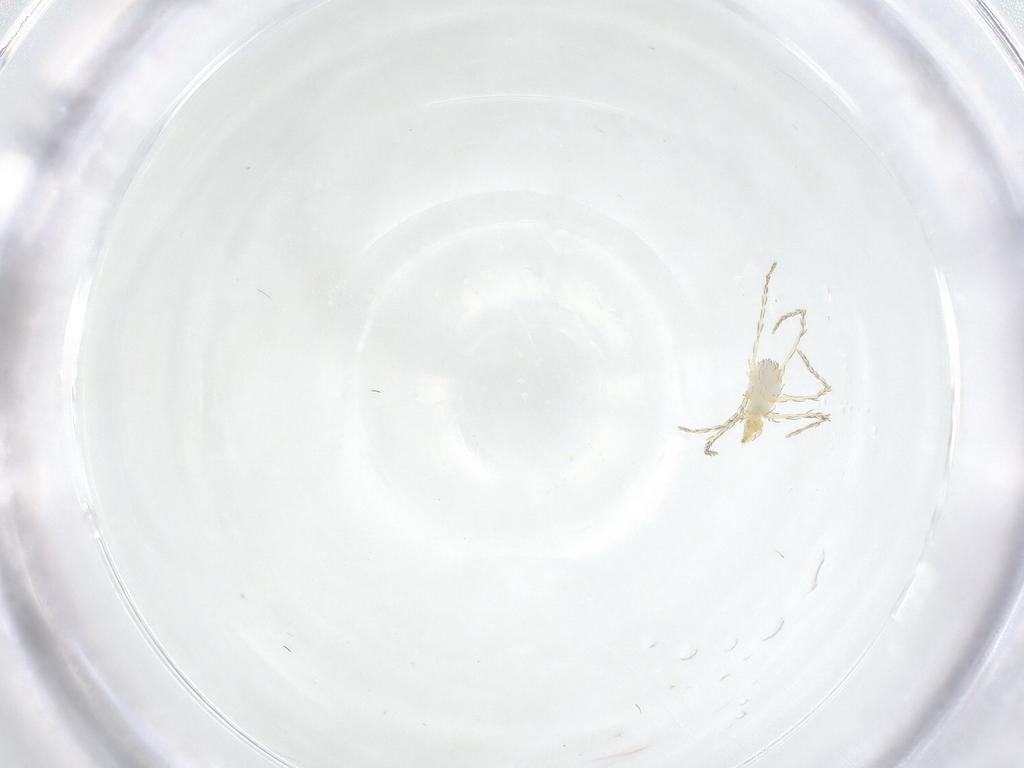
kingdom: Animalia
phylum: Arthropoda
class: Arachnida
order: Trombidiformes
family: Erythraeidae
